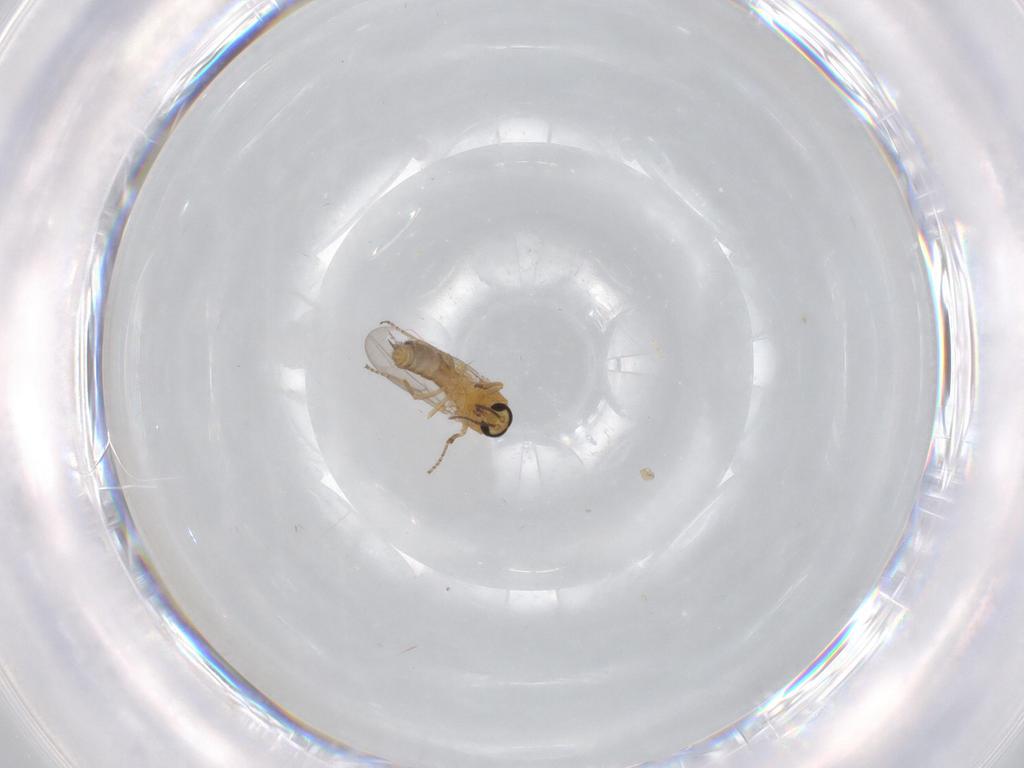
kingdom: Animalia
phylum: Arthropoda
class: Insecta
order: Diptera
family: Ceratopogonidae
